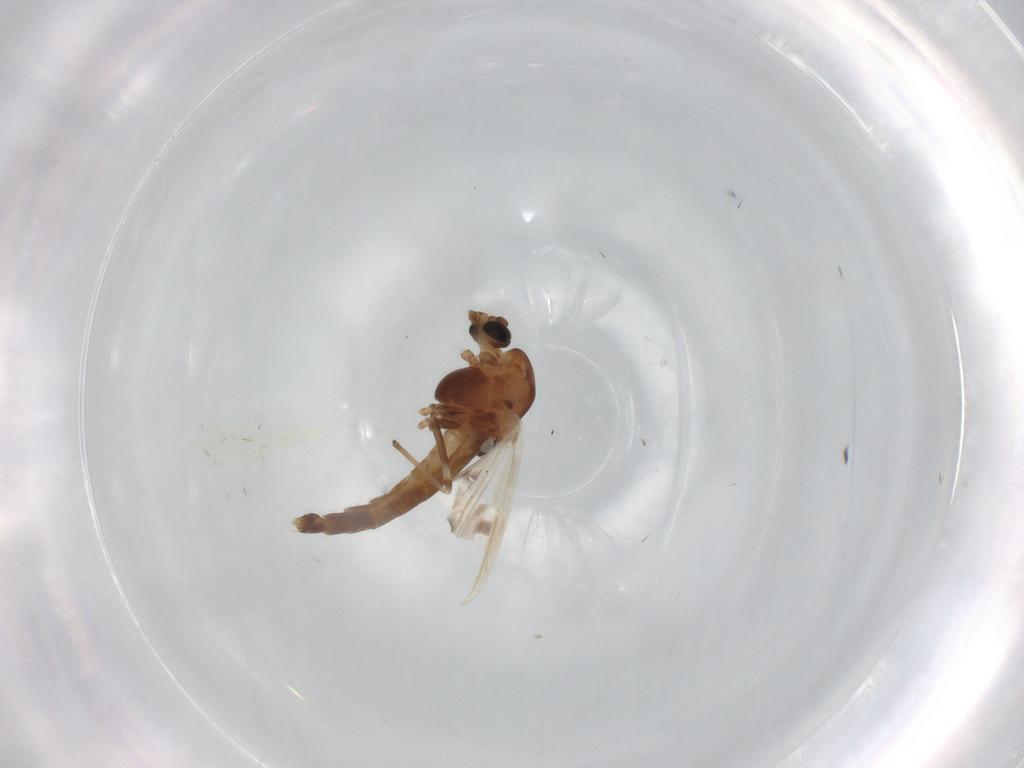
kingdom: Animalia
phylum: Arthropoda
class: Insecta
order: Diptera
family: Chironomidae
